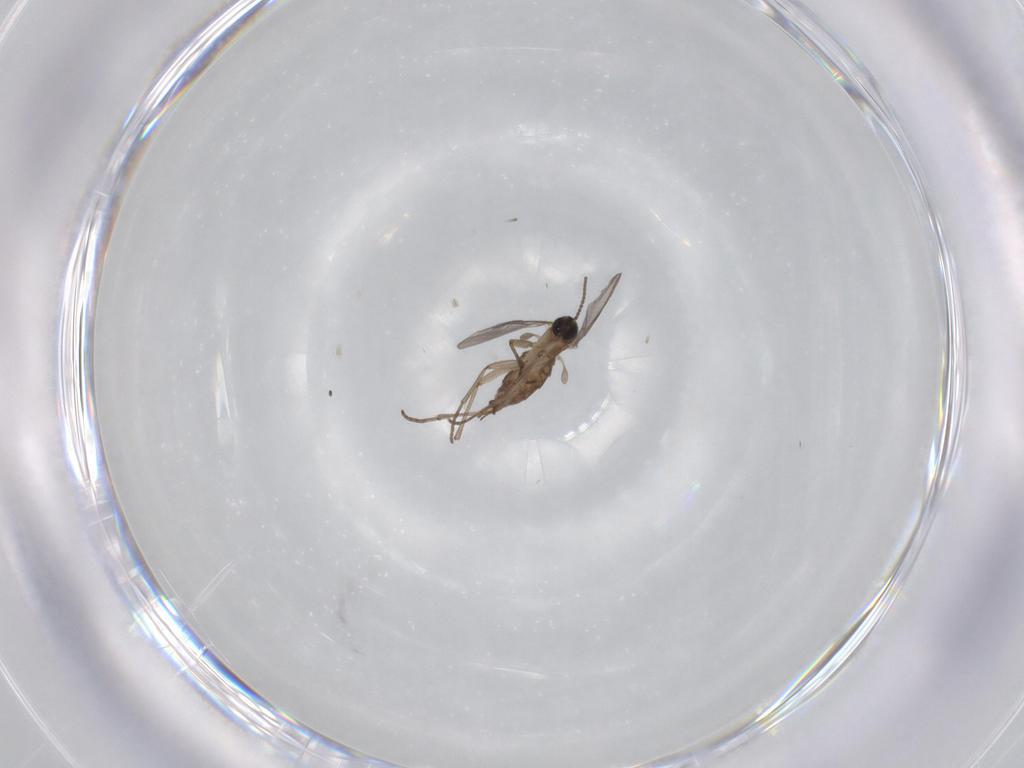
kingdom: Animalia
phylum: Arthropoda
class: Insecta
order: Diptera
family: Sciaridae
